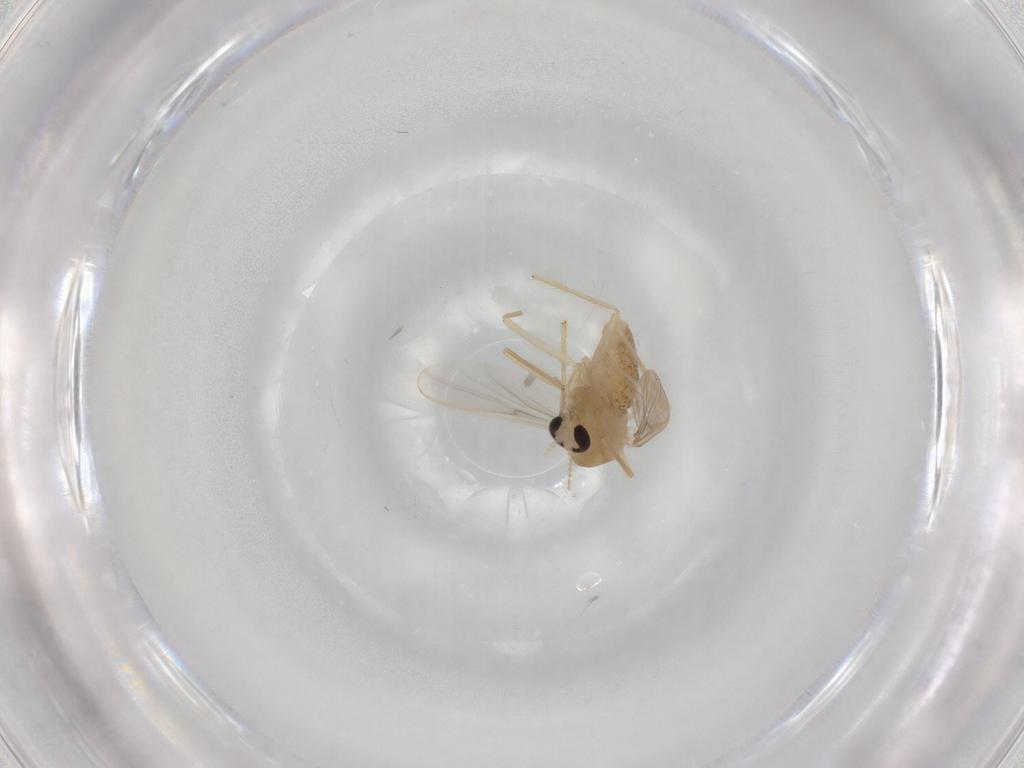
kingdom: Animalia
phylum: Arthropoda
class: Insecta
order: Diptera
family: Chironomidae
